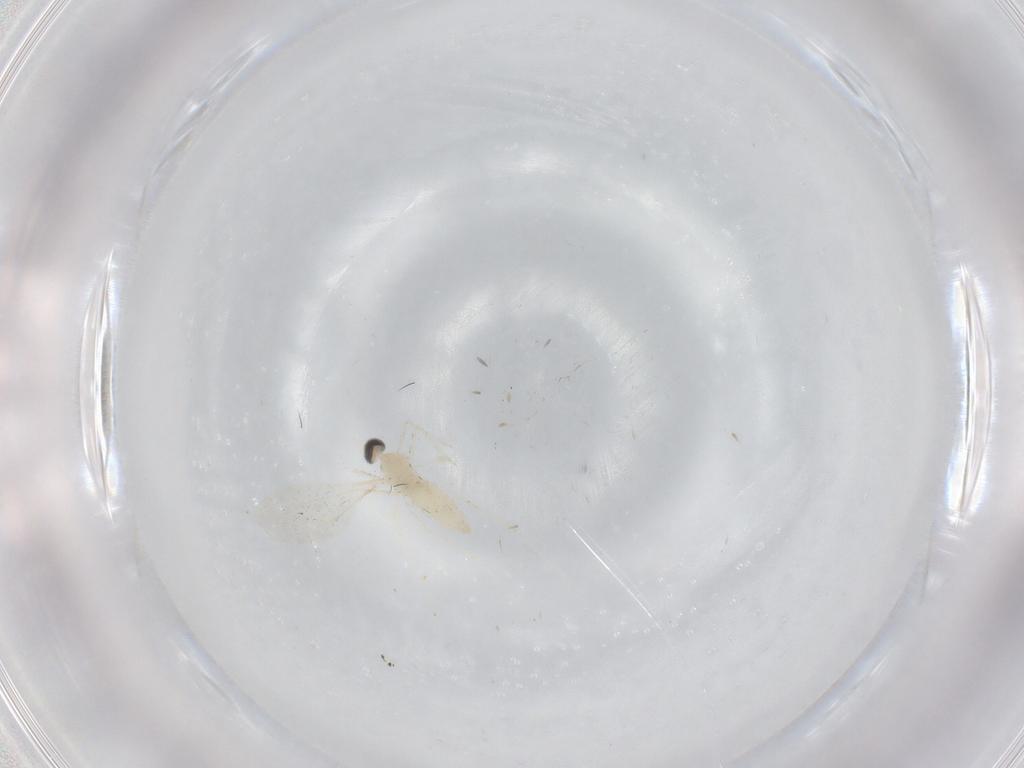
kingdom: Animalia
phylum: Arthropoda
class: Insecta
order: Diptera
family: Cecidomyiidae
